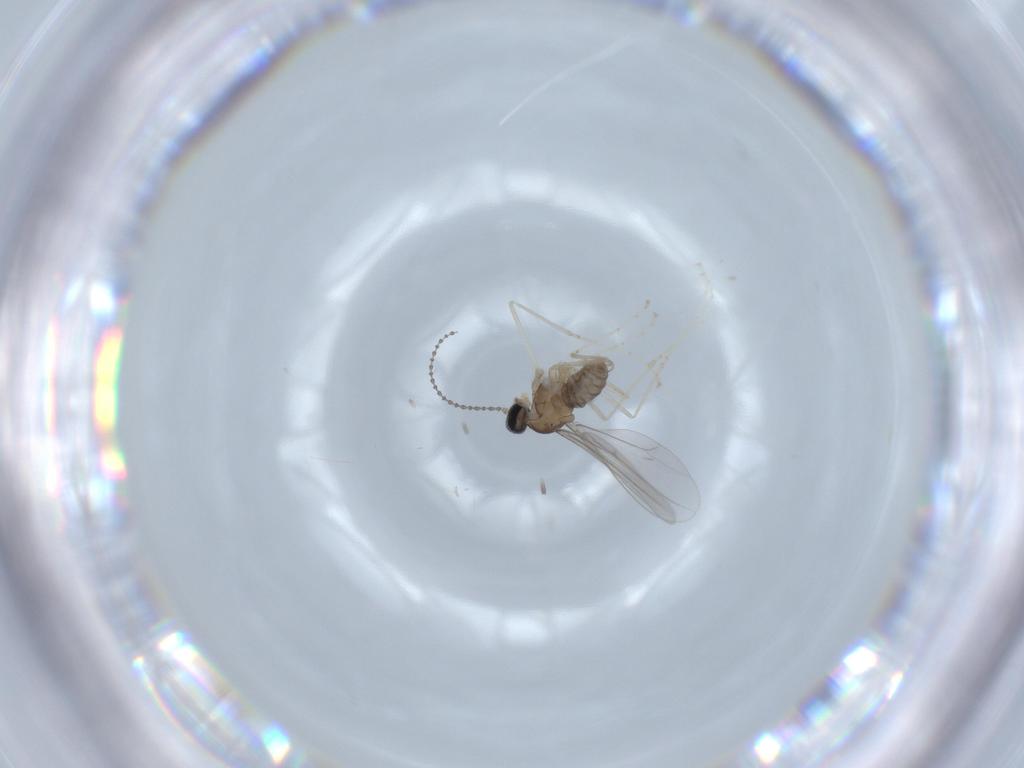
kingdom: Animalia
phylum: Arthropoda
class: Insecta
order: Diptera
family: Cecidomyiidae
